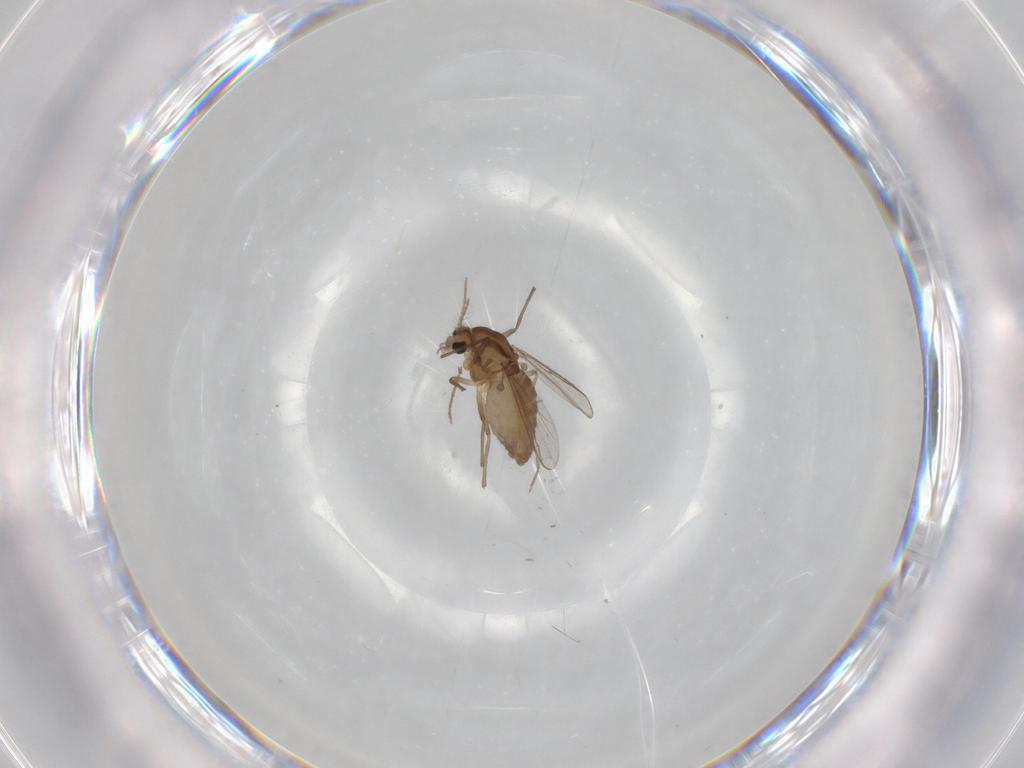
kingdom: Animalia
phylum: Arthropoda
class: Insecta
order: Diptera
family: Chironomidae
